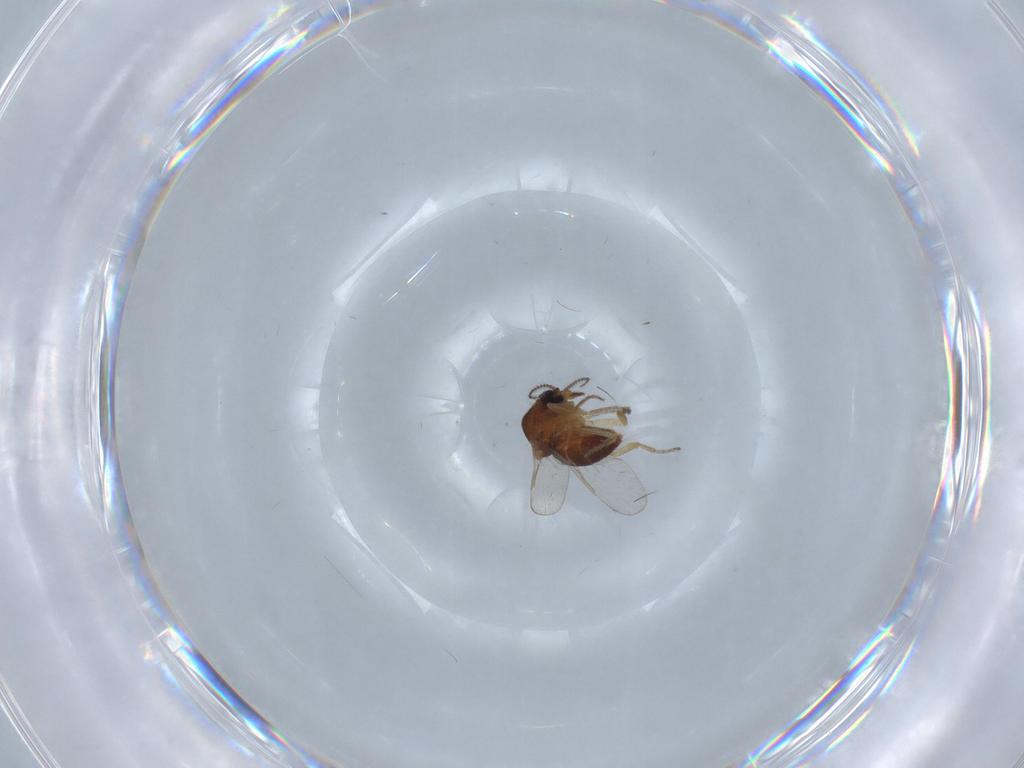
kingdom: Animalia
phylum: Arthropoda
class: Insecta
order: Diptera
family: Ceratopogonidae
